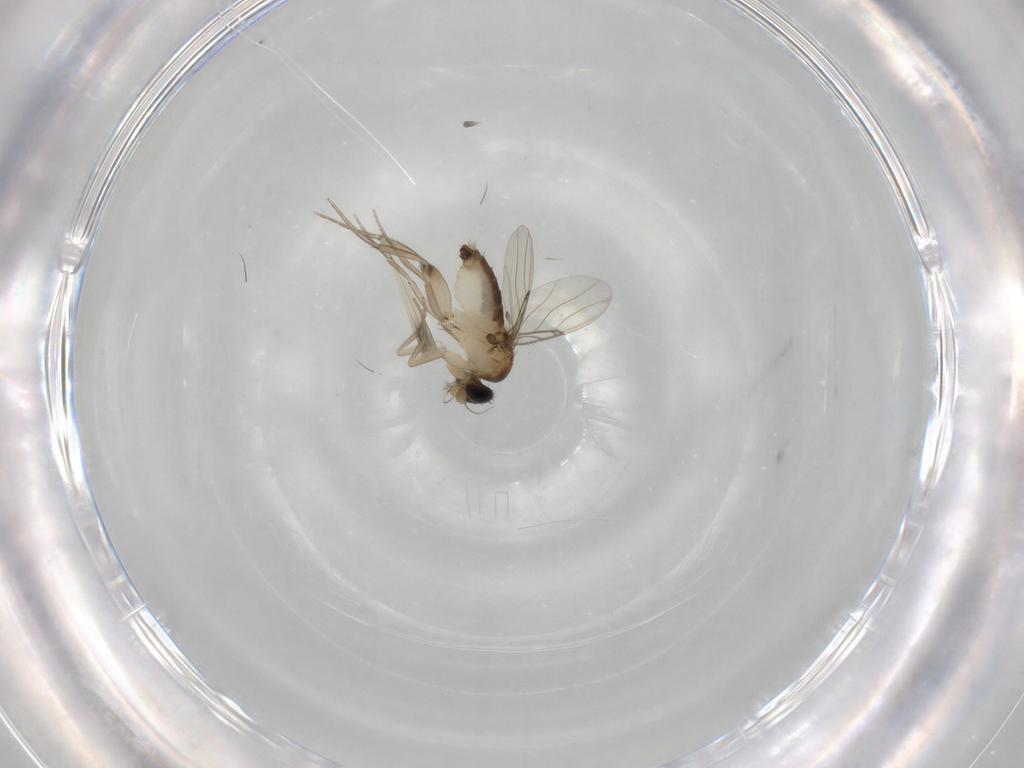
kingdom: Animalia
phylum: Arthropoda
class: Insecta
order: Diptera
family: Phoridae
